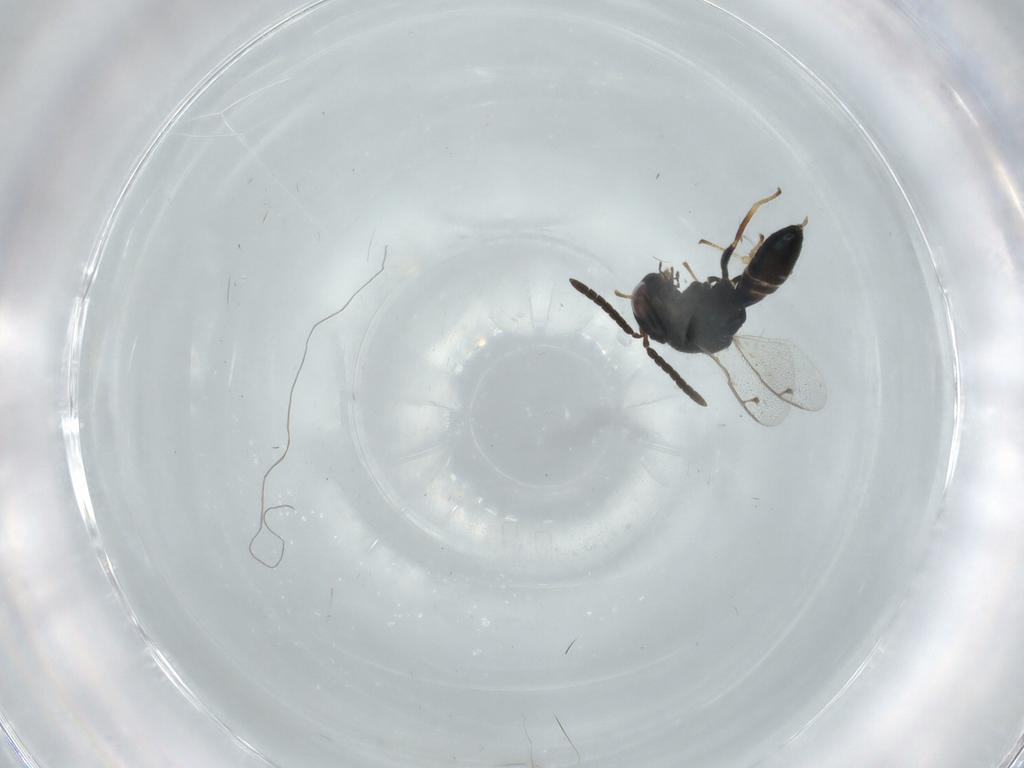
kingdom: Animalia
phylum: Arthropoda
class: Insecta
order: Hymenoptera
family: Pteromalidae
